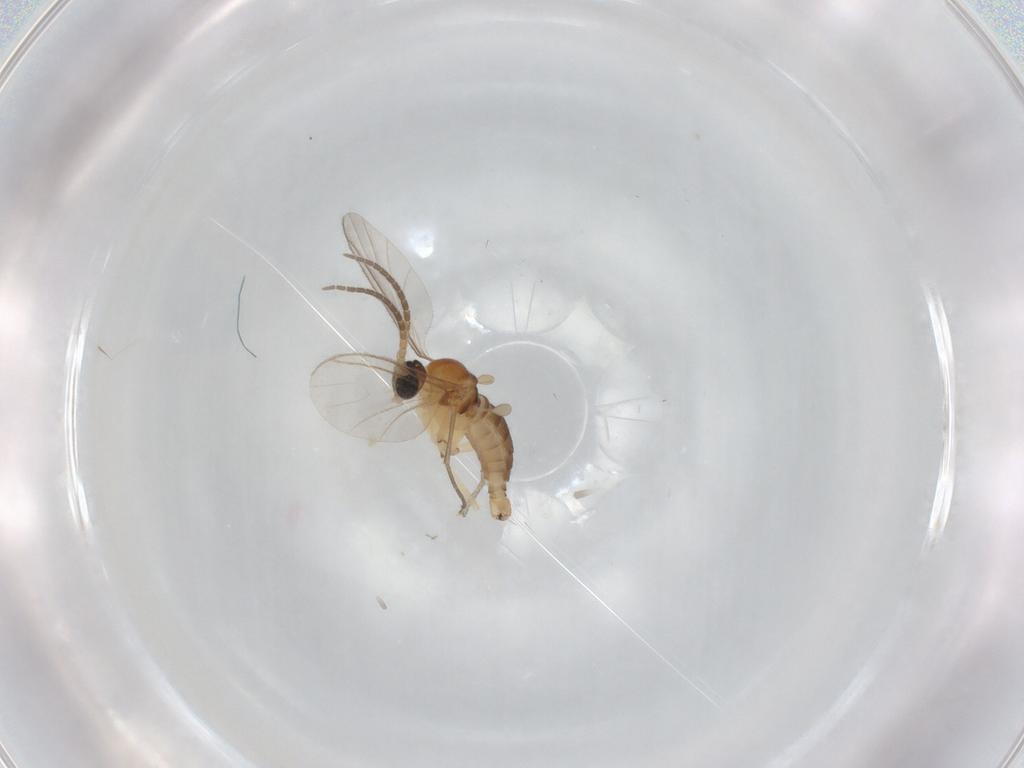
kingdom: Animalia
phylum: Arthropoda
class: Insecta
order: Diptera
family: Sciaridae
